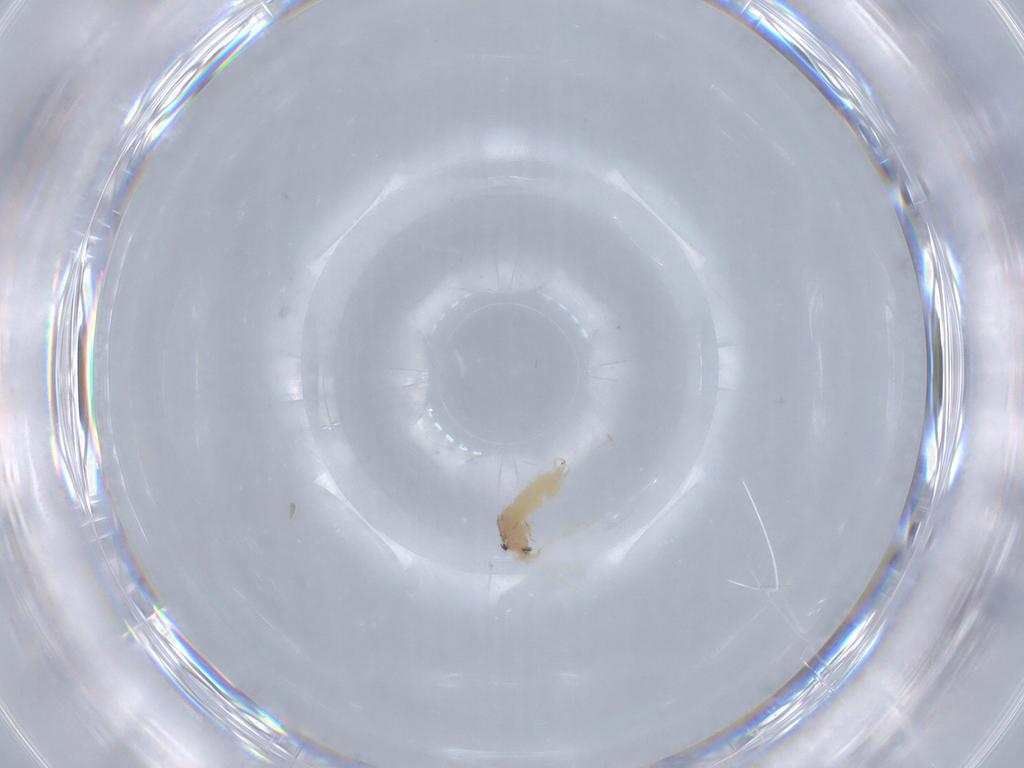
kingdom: Animalia
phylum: Arthropoda
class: Insecta
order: Diptera
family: Cecidomyiidae
